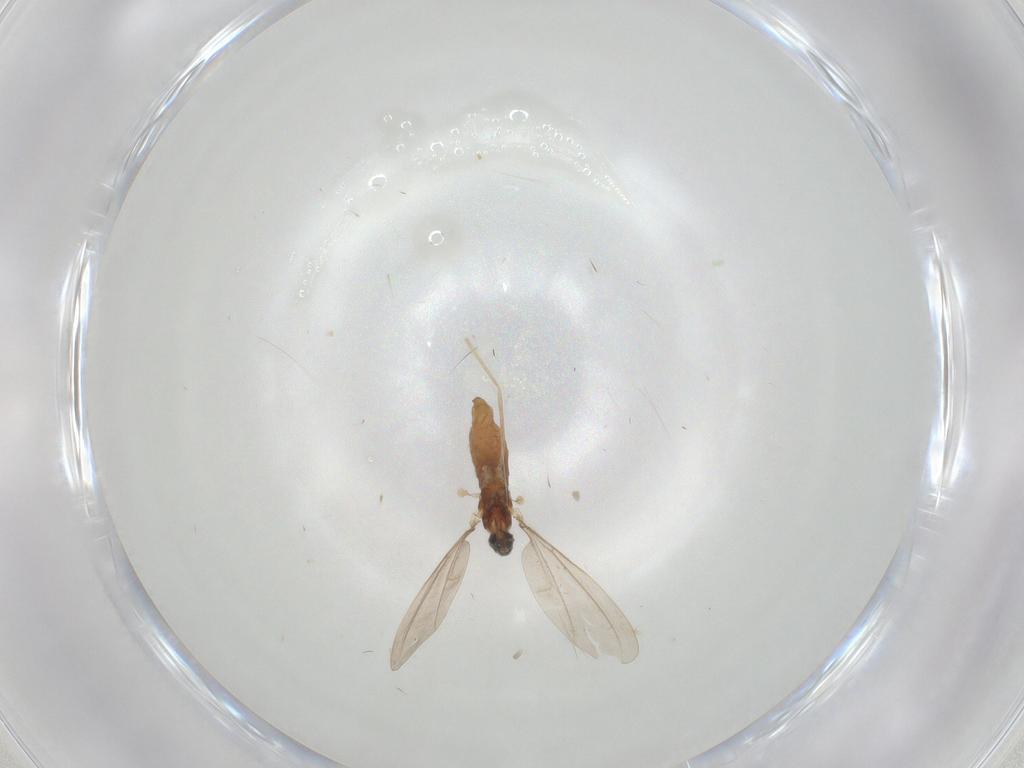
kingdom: Animalia
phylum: Arthropoda
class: Insecta
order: Diptera
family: Cecidomyiidae
